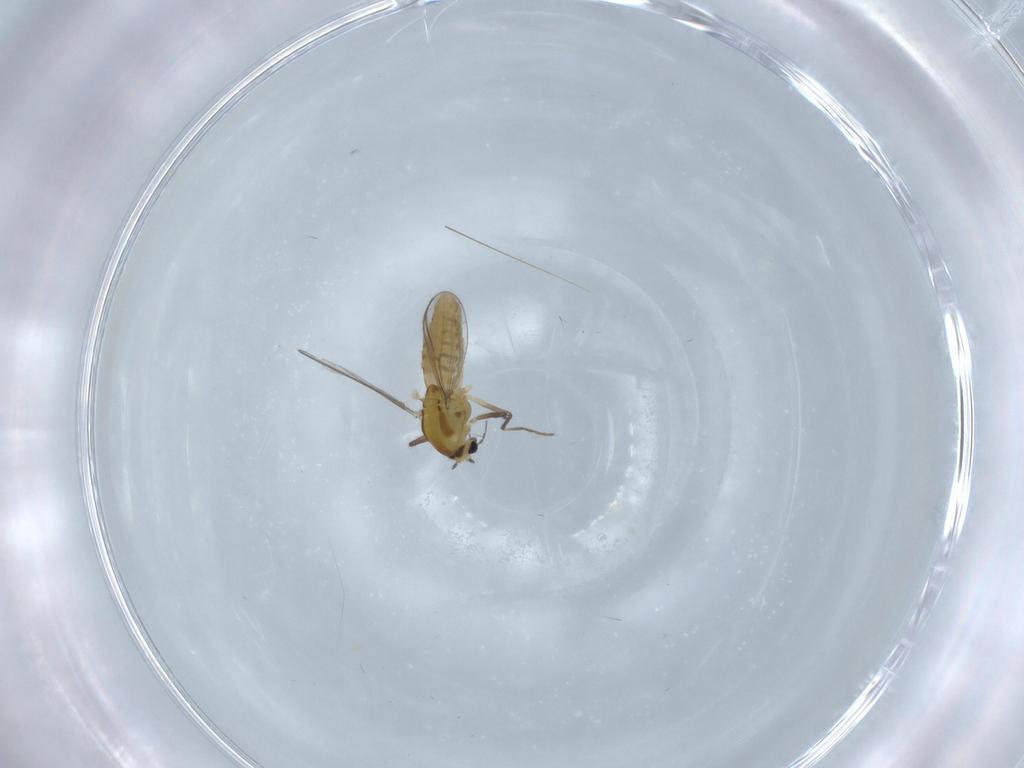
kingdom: Animalia
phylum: Arthropoda
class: Insecta
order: Diptera
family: Chironomidae
